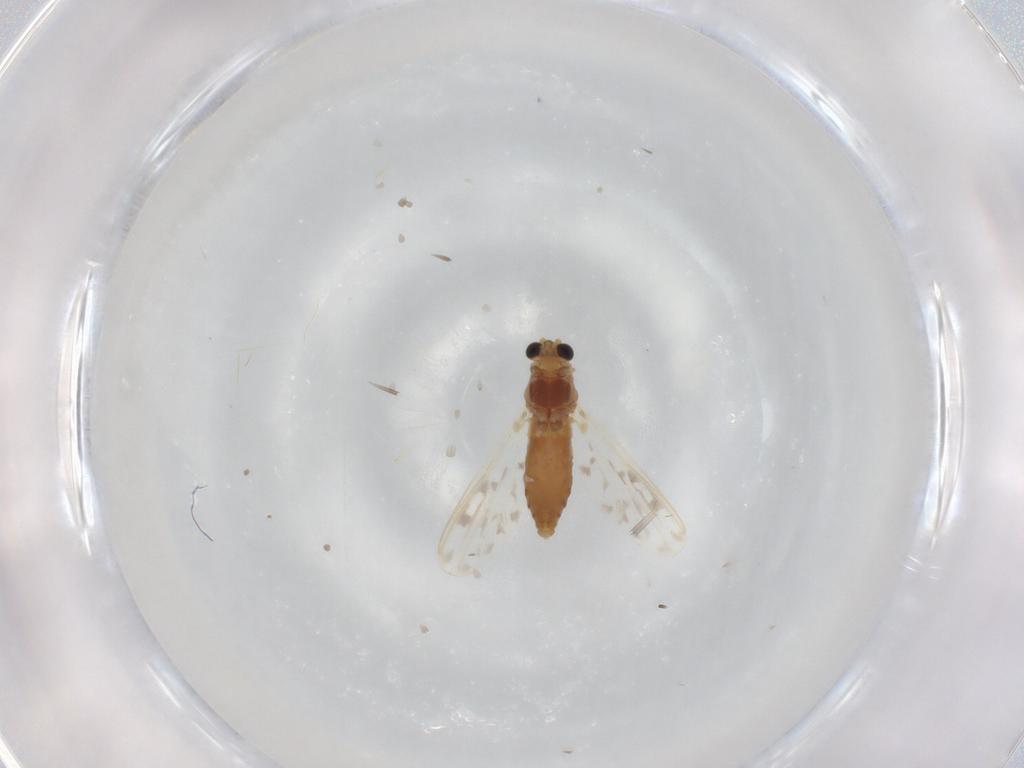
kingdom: Animalia
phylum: Arthropoda
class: Insecta
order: Diptera
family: Chironomidae
